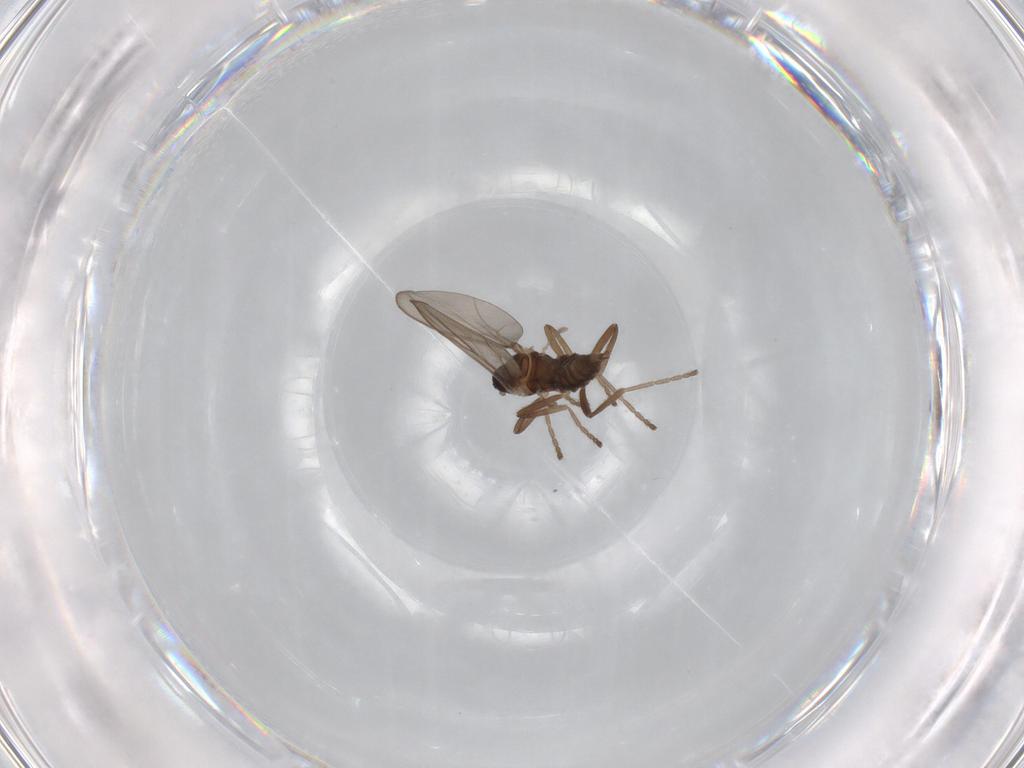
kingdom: Animalia
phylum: Arthropoda
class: Insecta
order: Diptera
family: Cecidomyiidae
